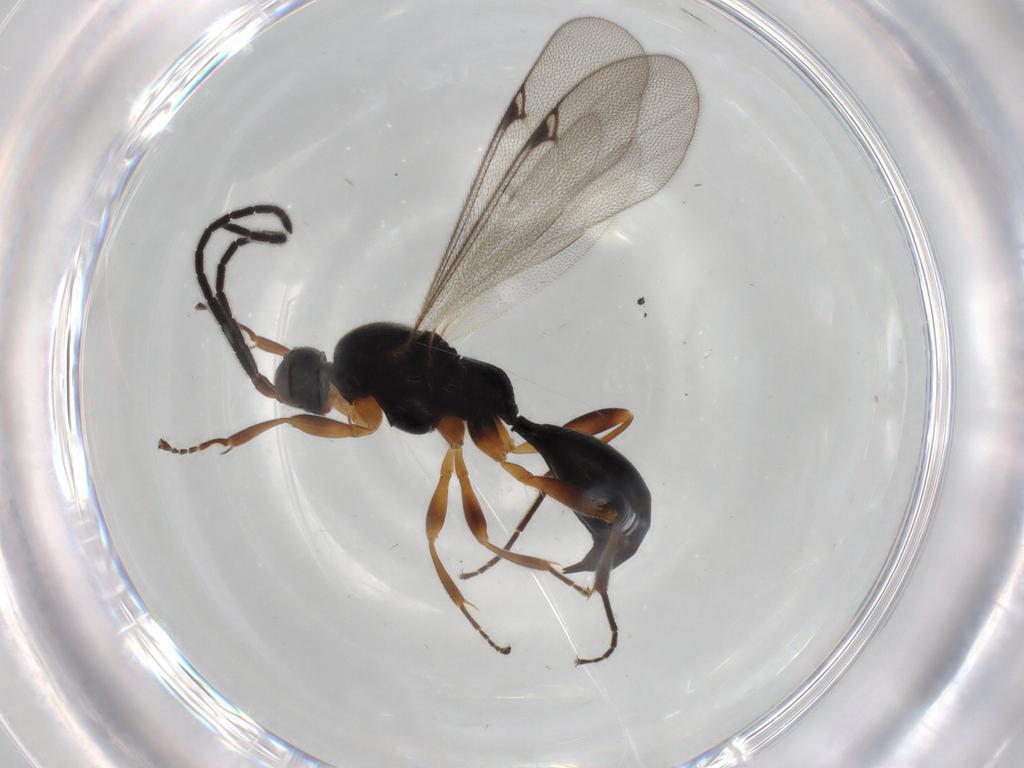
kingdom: Animalia
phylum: Arthropoda
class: Insecta
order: Hymenoptera
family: Proctotrupidae
